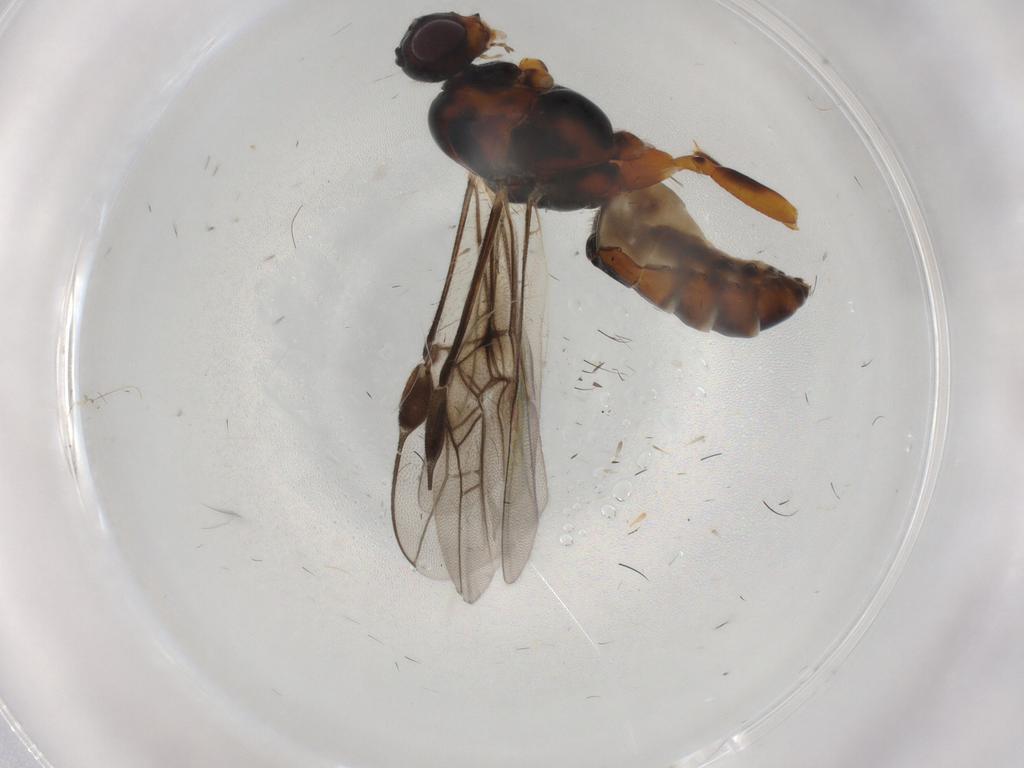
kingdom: Animalia
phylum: Arthropoda
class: Insecta
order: Hymenoptera
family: Braconidae
